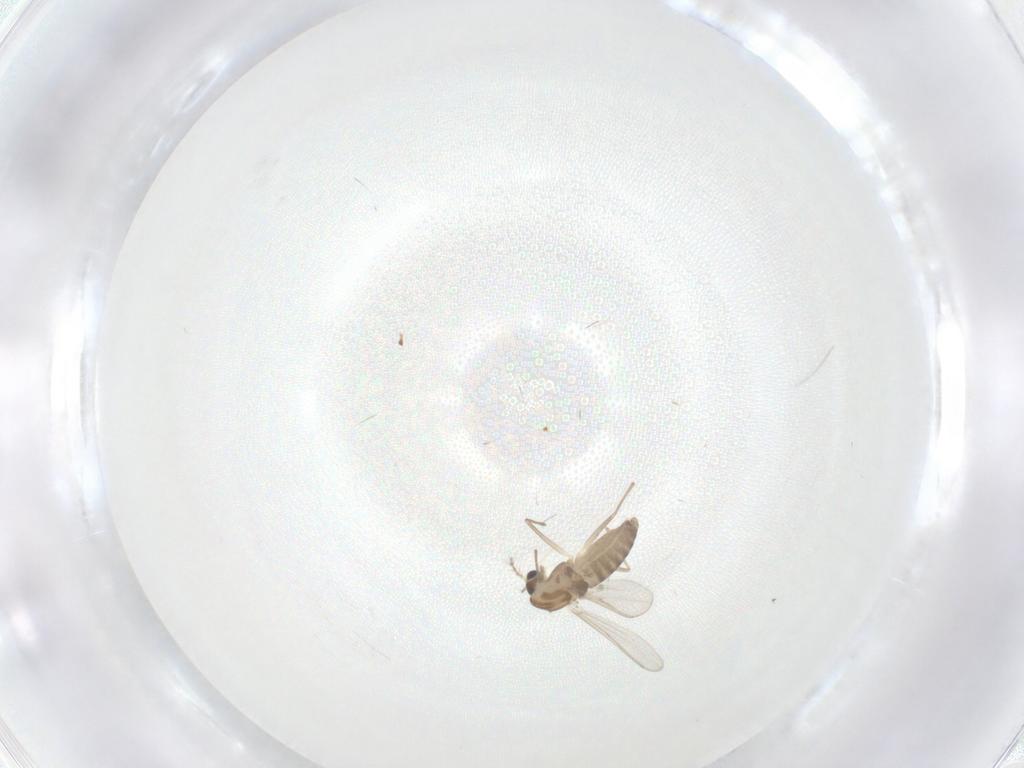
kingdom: Animalia
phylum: Arthropoda
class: Insecta
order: Diptera
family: Chironomidae
